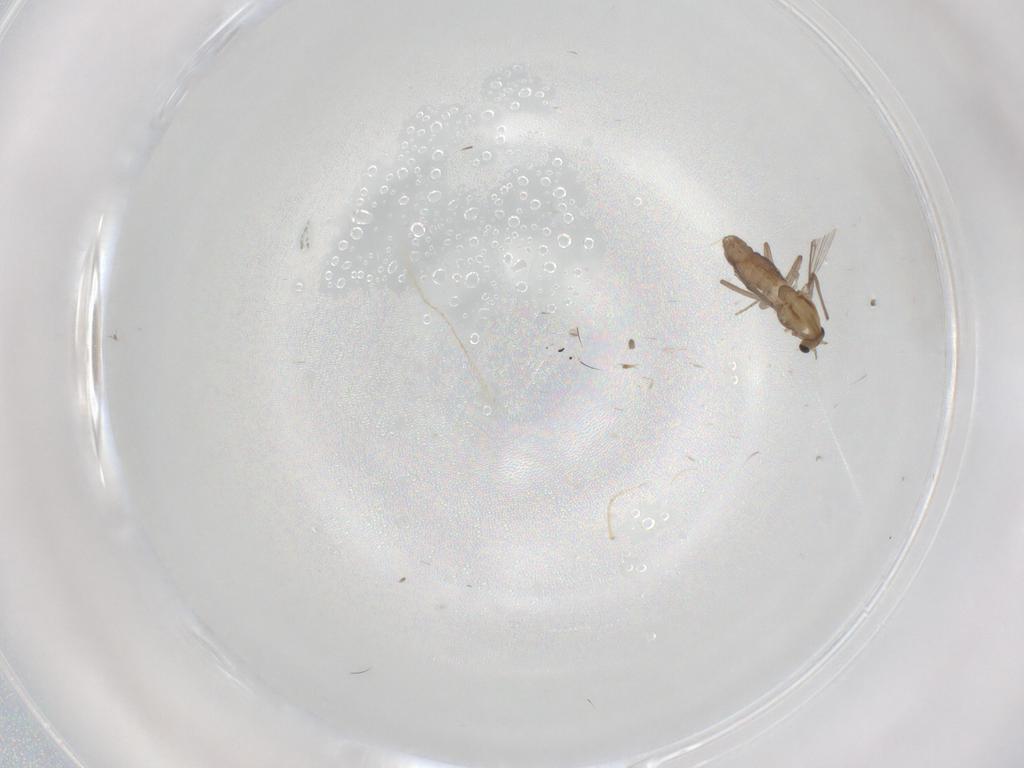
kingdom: Animalia
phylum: Arthropoda
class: Insecta
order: Diptera
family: Chironomidae
